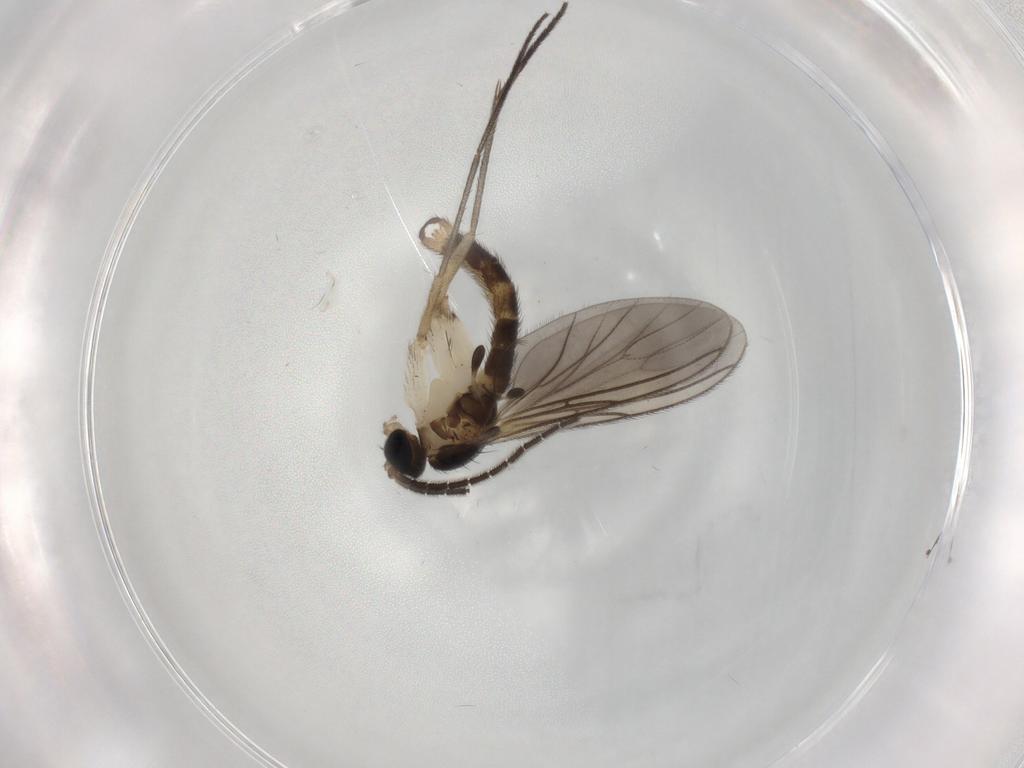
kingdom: Animalia
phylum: Arthropoda
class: Insecta
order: Diptera
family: Sciaridae
